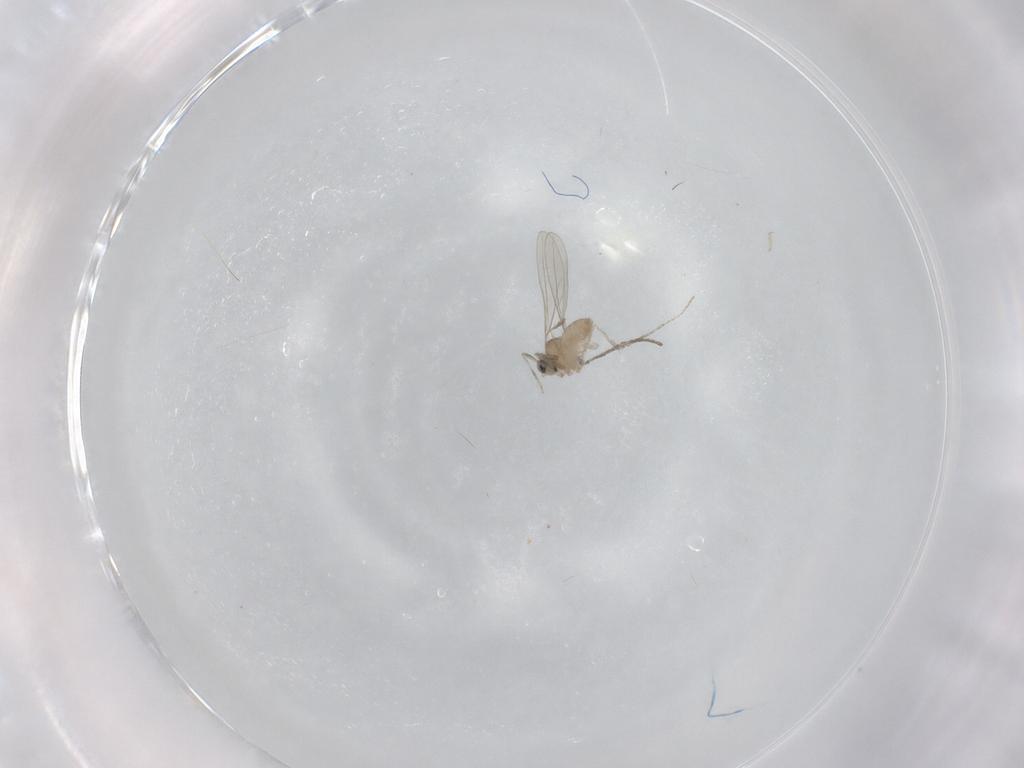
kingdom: Animalia
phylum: Arthropoda
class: Insecta
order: Diptera
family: Cecidomyiidae
